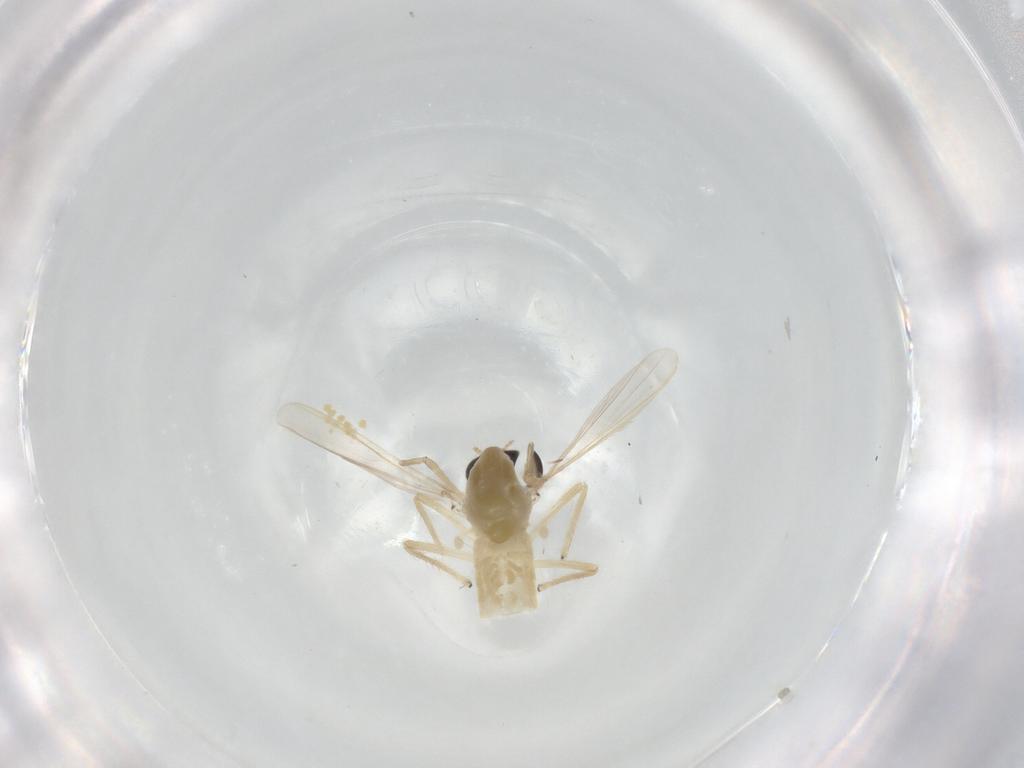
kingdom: Animalia
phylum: Arthropoda
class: Insecta
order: Diptera
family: Chironomidae
